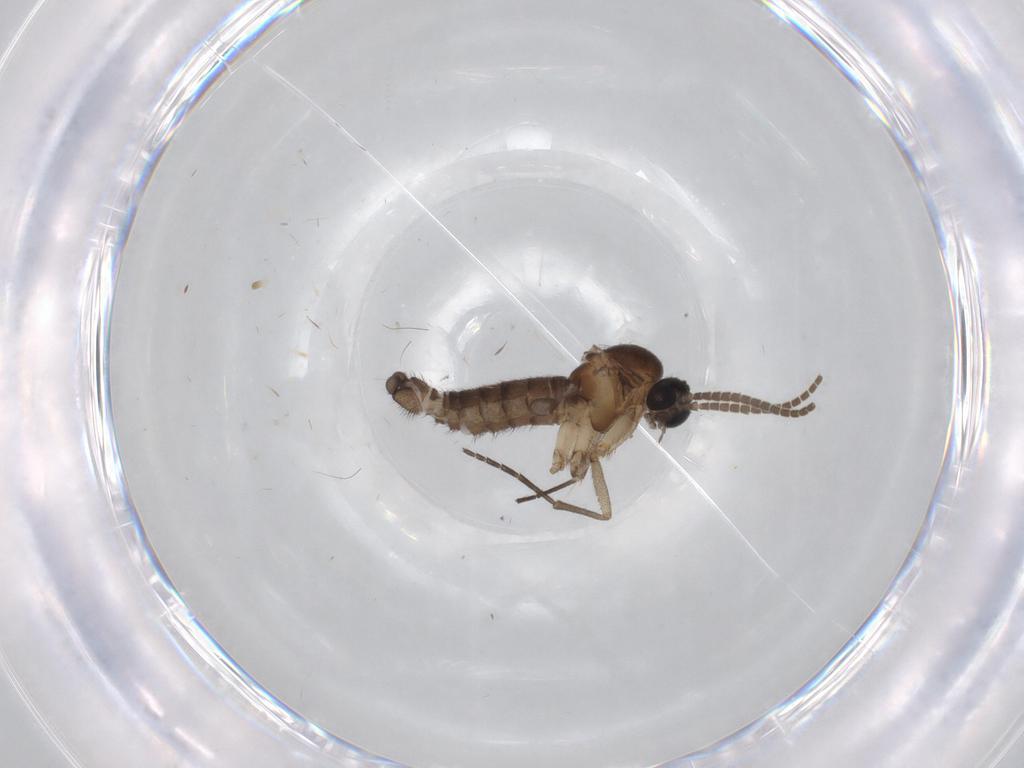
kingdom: Animalia
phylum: Arthropoda
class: Insecta
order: Diptera
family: Psychodidae
